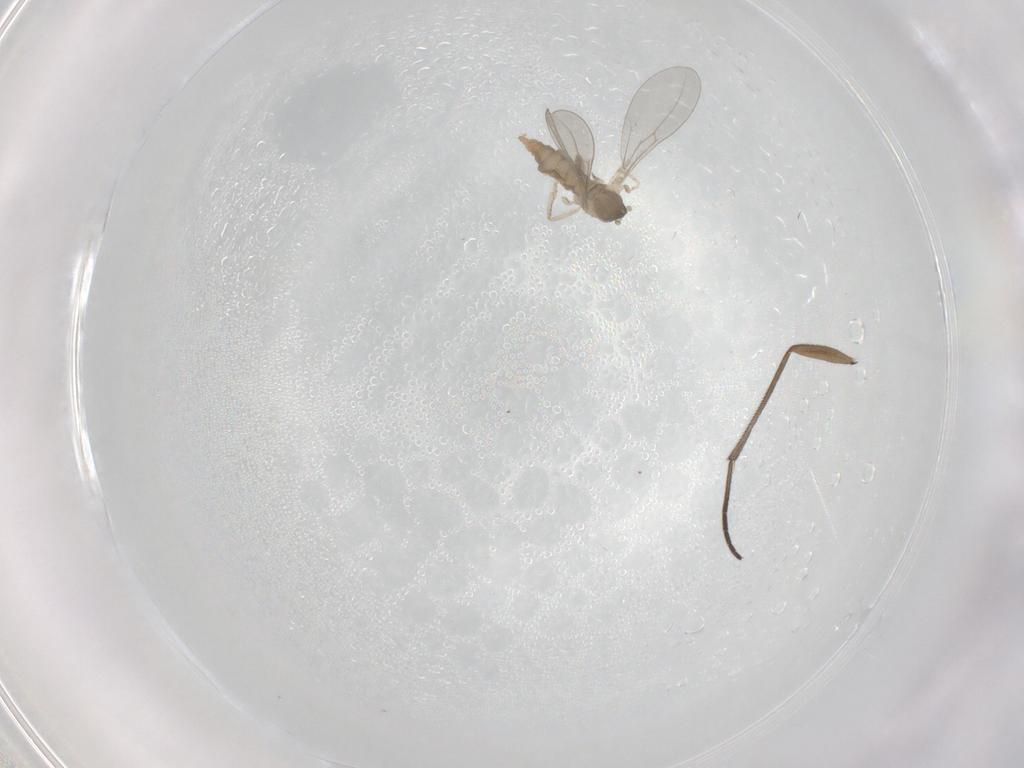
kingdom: Animalia
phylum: Arthropoda
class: Insecta
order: Diptera
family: Cecidomyiidae
